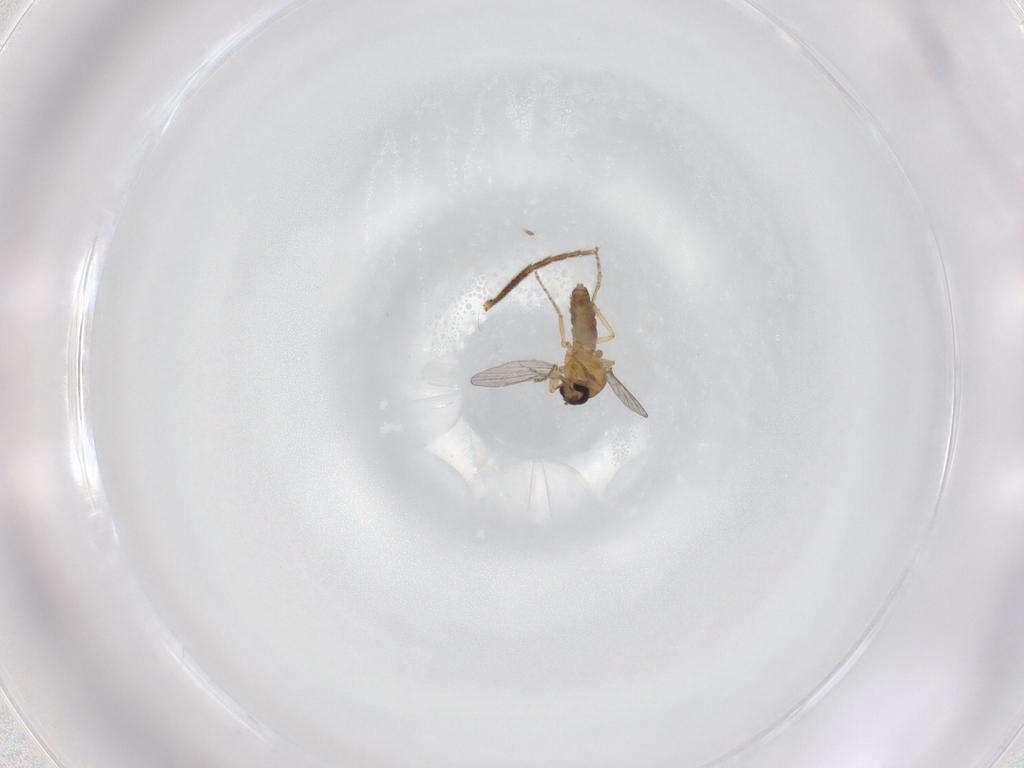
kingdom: Animalia
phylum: Arthropoda
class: Insecta
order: Diptera
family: Ceratopogonidae
